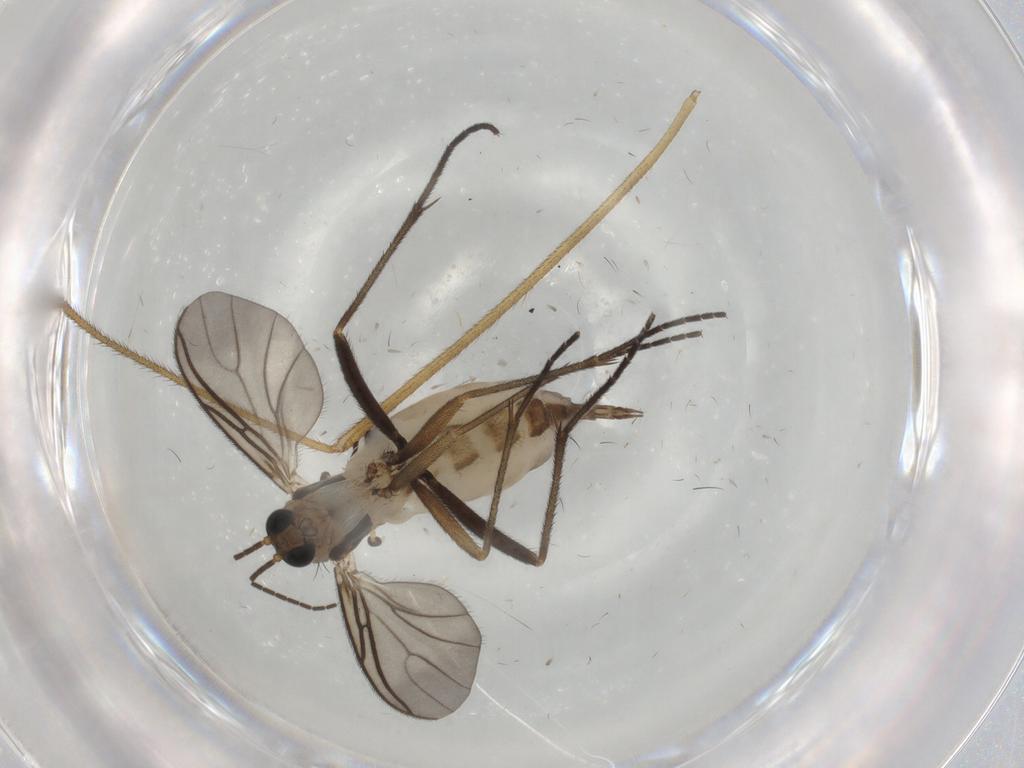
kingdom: Animalia
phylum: Arthropoda
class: Insecta
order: Diptera
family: Sciaridae
